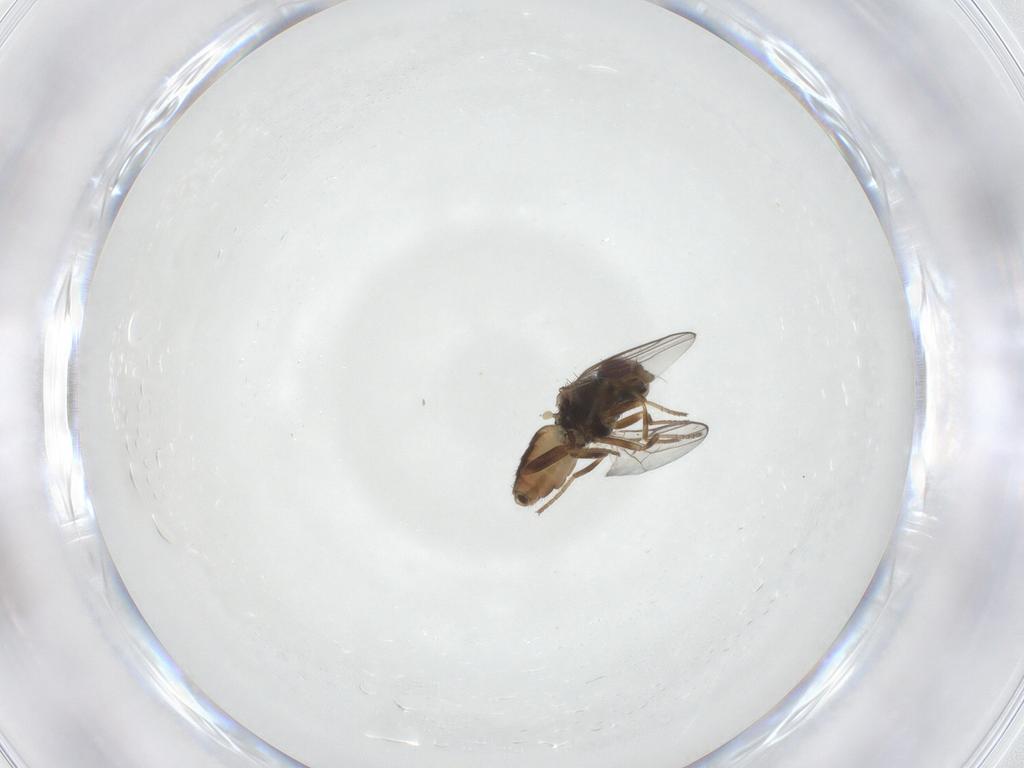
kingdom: Animalia
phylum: Arthropoda
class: Insecta
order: Diptera
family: Chloropidae
